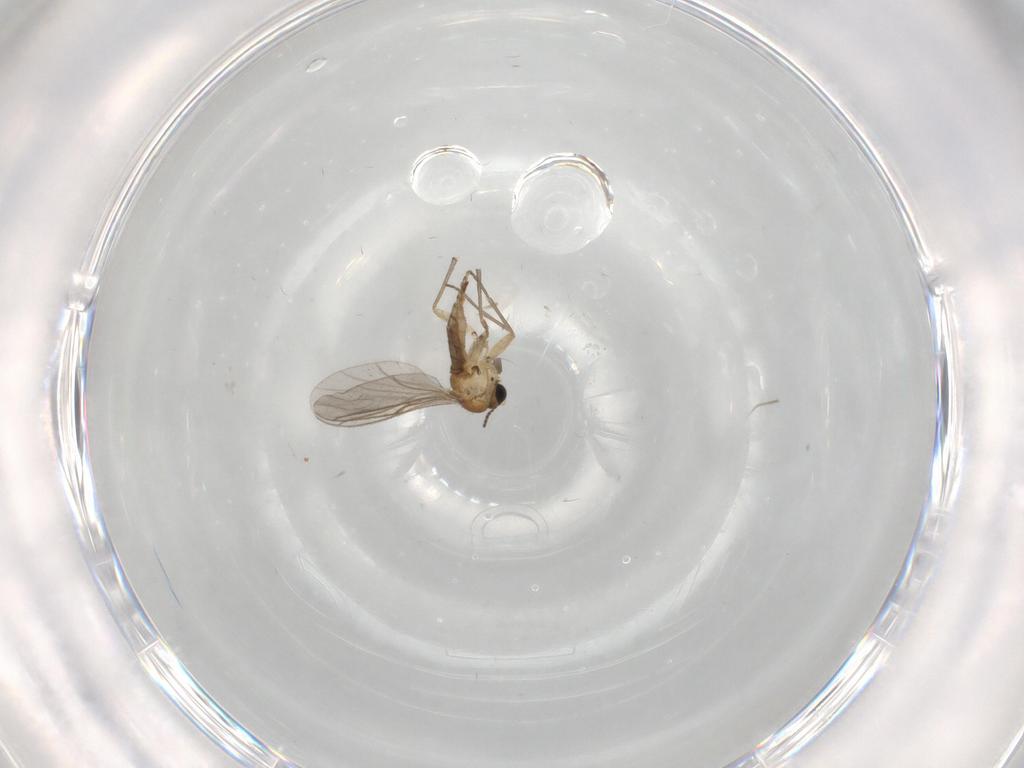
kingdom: Animalia
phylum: Arthropoda
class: Insecta
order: Diptera
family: Sciaridae
